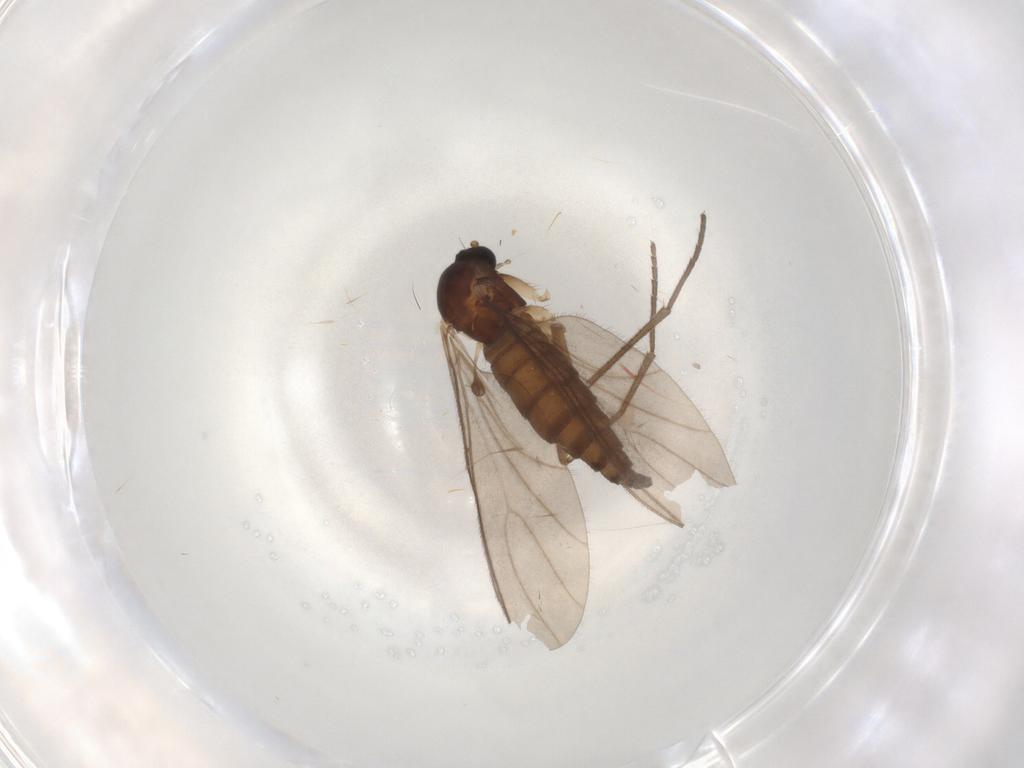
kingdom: Animalia
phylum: Arthropoda
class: Insecta
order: Diptera
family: Sciaridae
